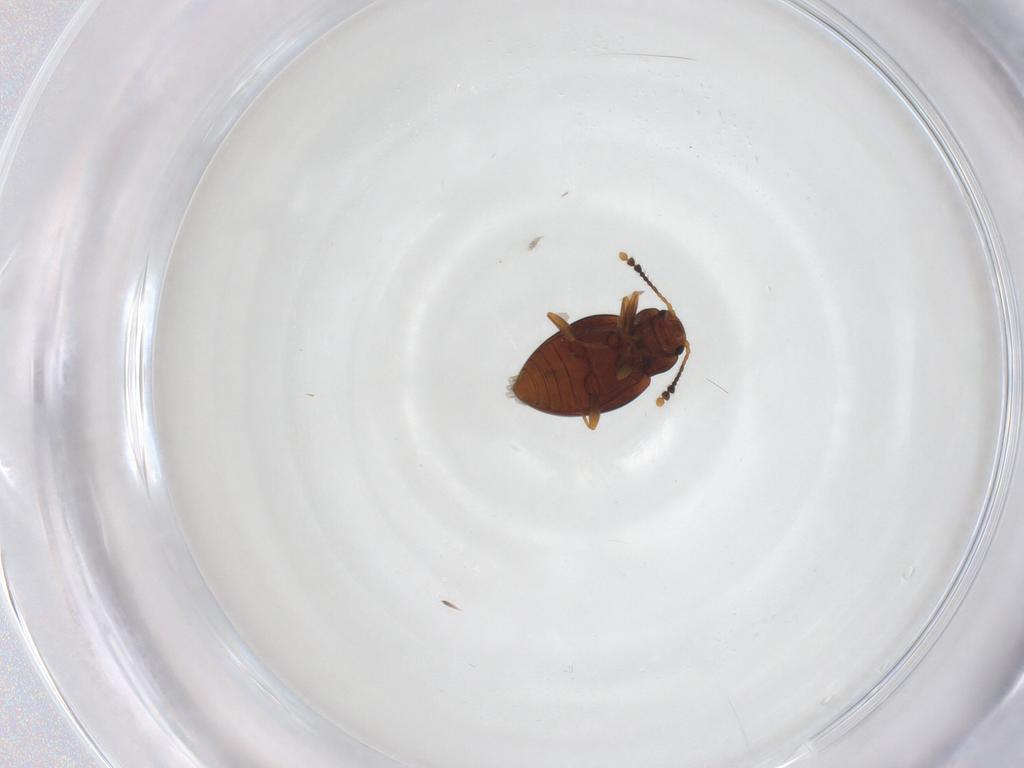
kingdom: Animalia
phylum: Arthropoda
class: Insecta
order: Coleoptera
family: Erotylidae
